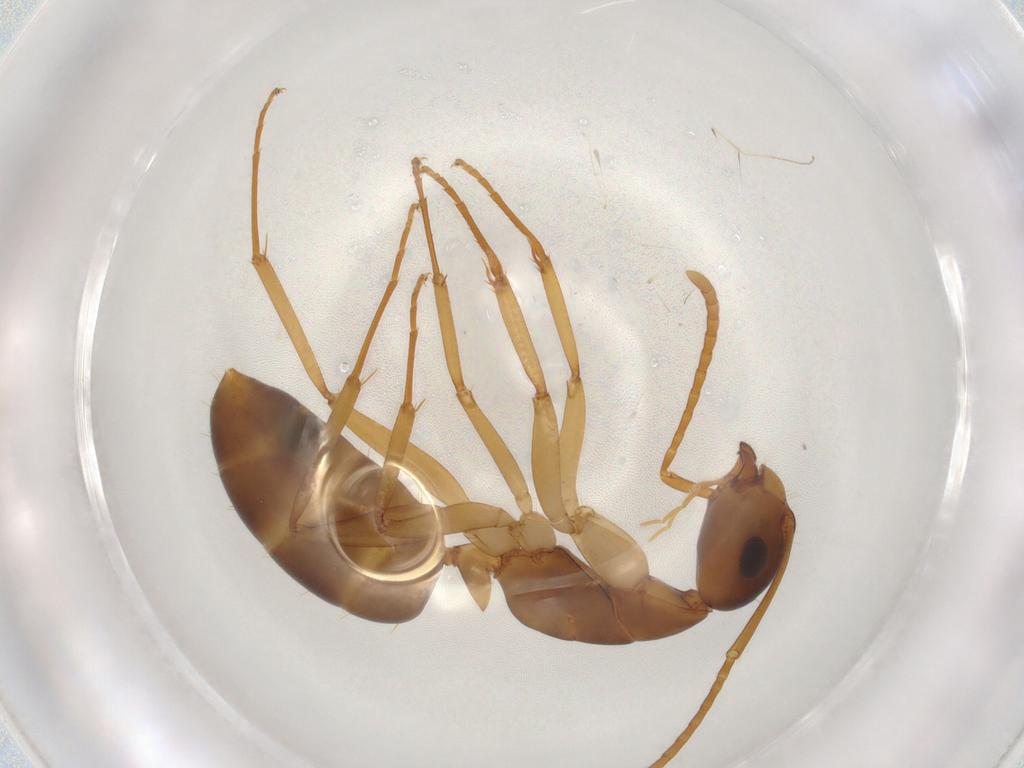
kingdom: Animalia
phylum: Arthropoda
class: Insecta
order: Hymenoptera
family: Formicidae
